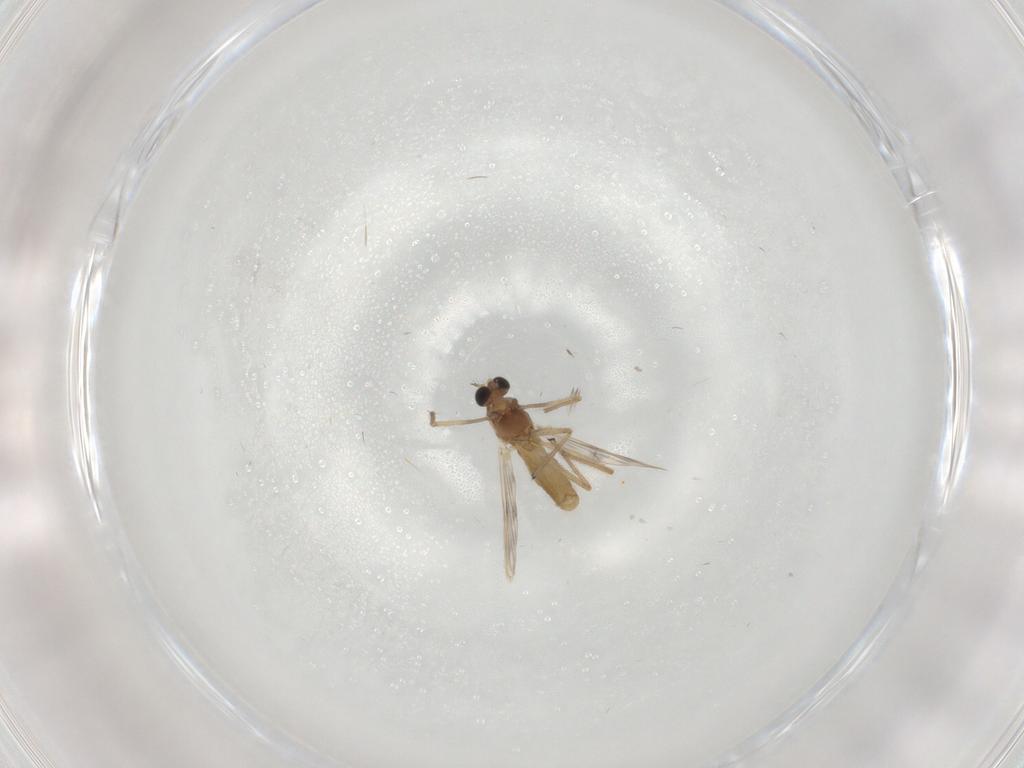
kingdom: Animalia
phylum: Arthropoda
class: Insecta
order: Diptera
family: Chironomidae
